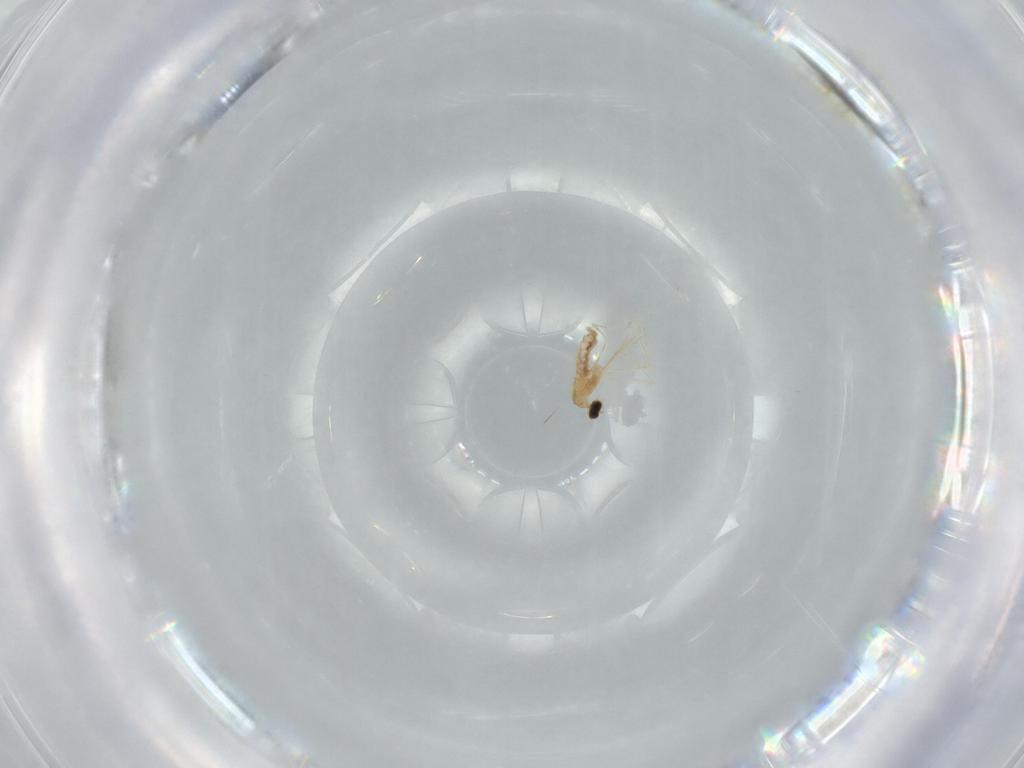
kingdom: Animalia
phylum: Arthropoda
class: Insecta
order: Diptera
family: Cecidomyiidae
